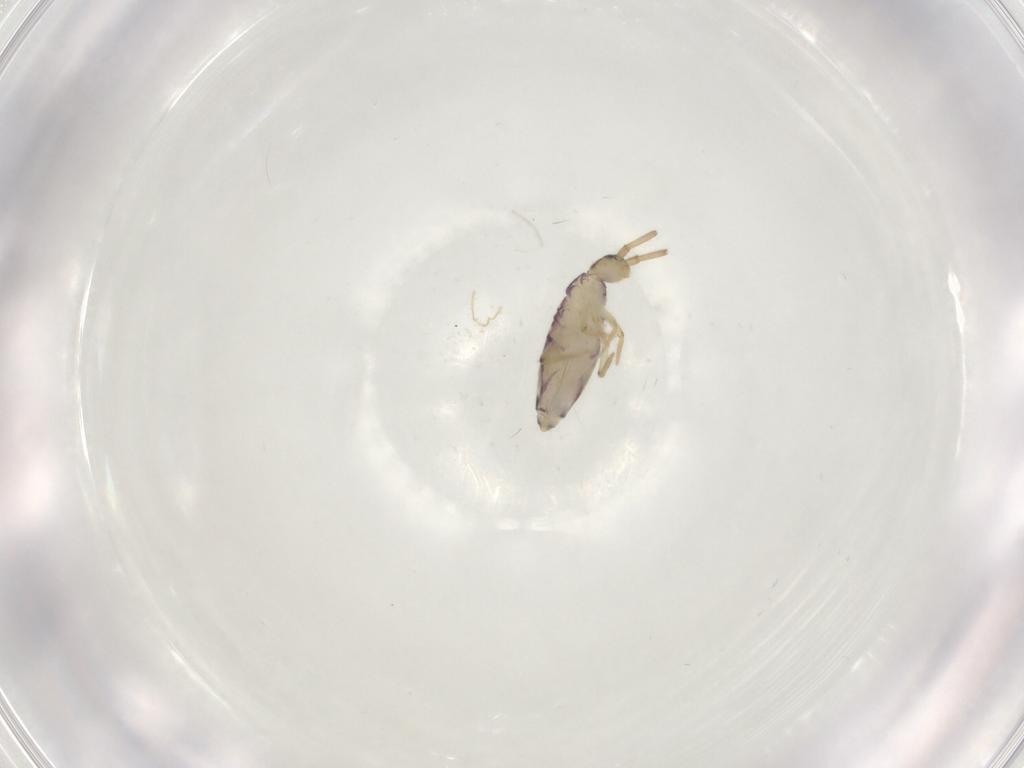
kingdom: Animalia
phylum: Arthropoda
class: Collembola
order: Entomobryomorpha
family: Entomobryidae
